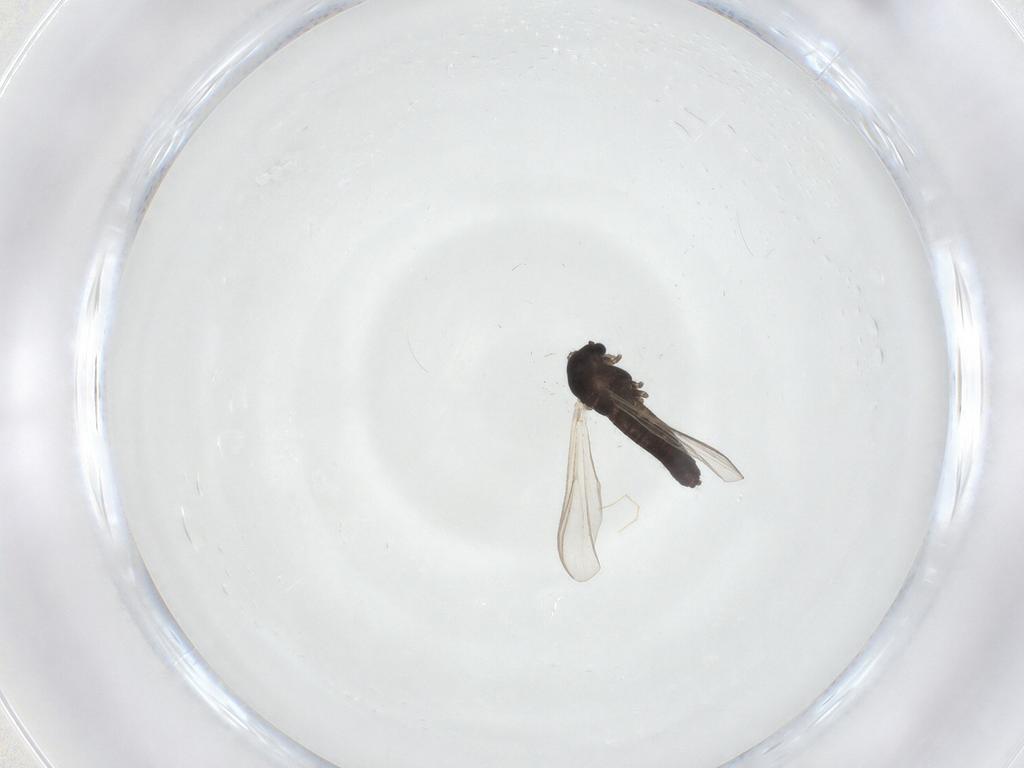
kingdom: Animalia
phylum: Arthropoda
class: Insecta
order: Diptera
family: Sciaridae
